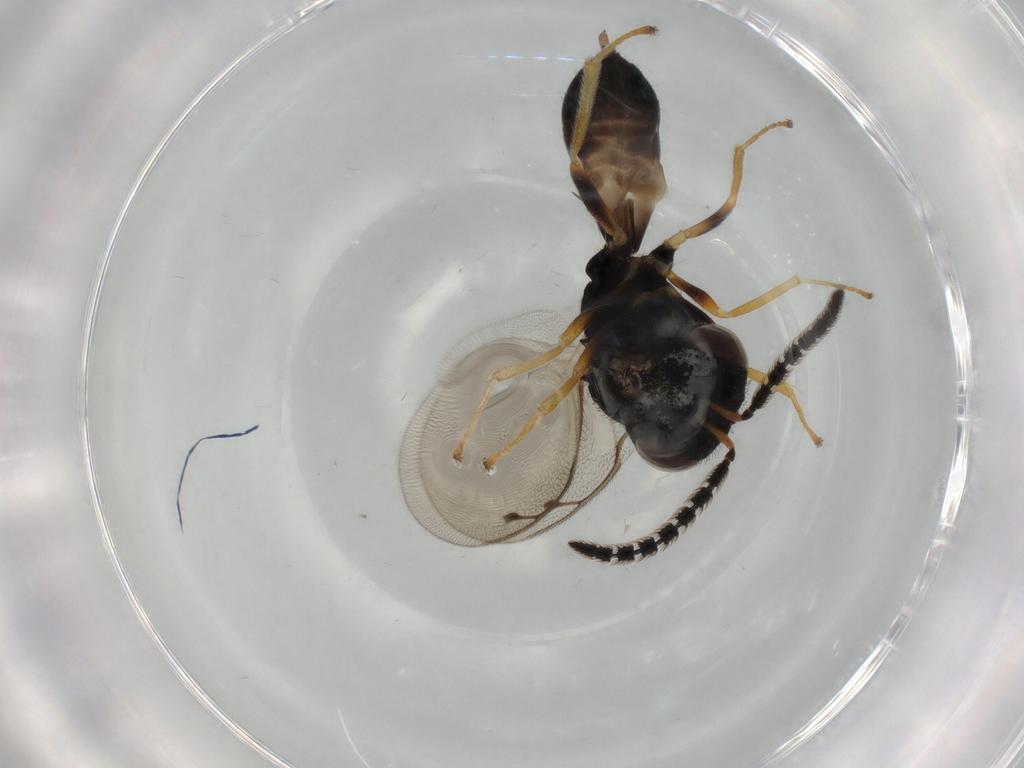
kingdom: Animalia
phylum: Arthropoda
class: Insecta
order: Hymenoptera
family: Pteromalidae
